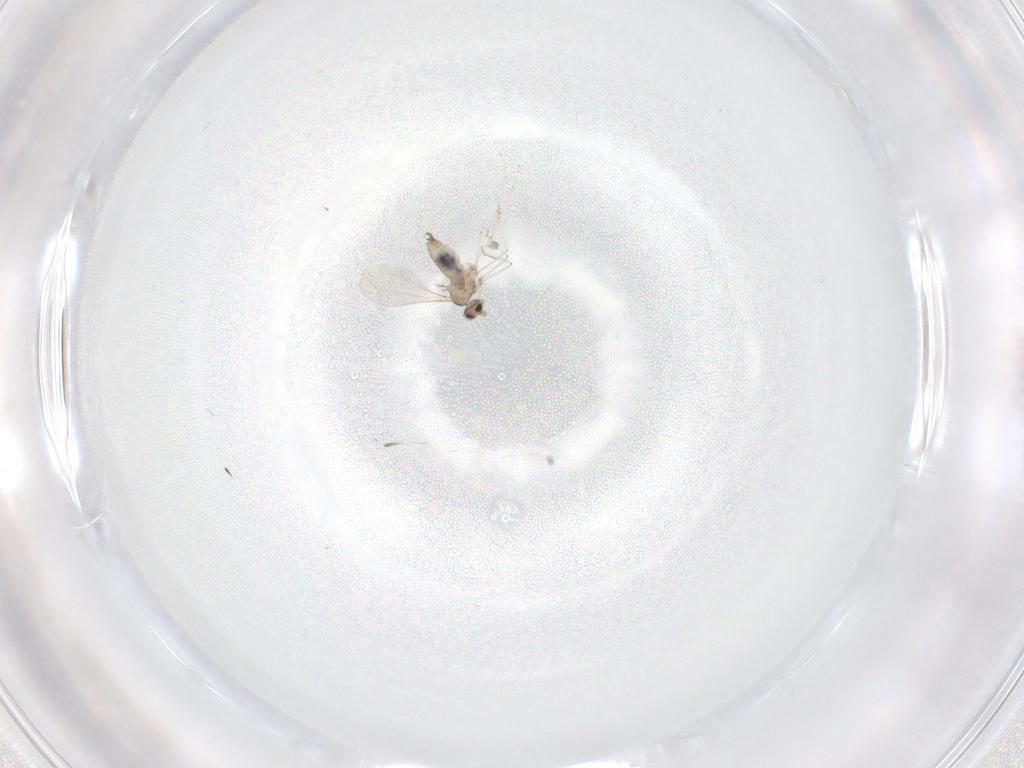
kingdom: Animalia
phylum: Arthropoda
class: Insecta
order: Diptera
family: Cecidomyiidae
